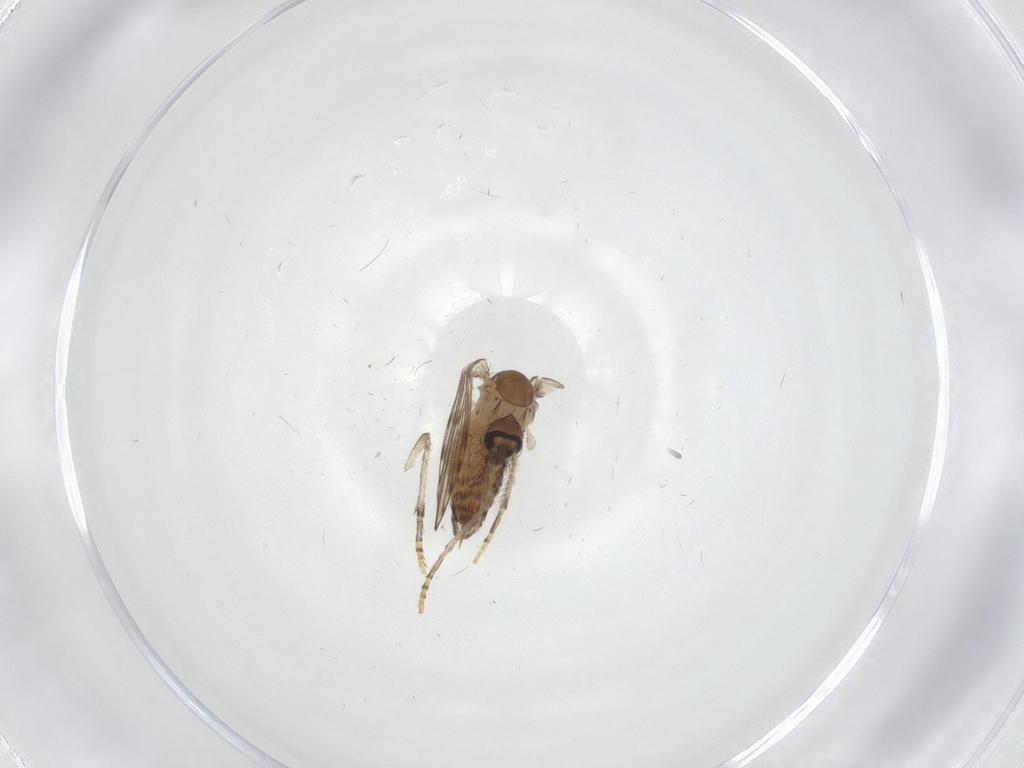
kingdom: Animalia
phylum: Arthropoda
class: Insecta
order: Diptera
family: Psychodidae
